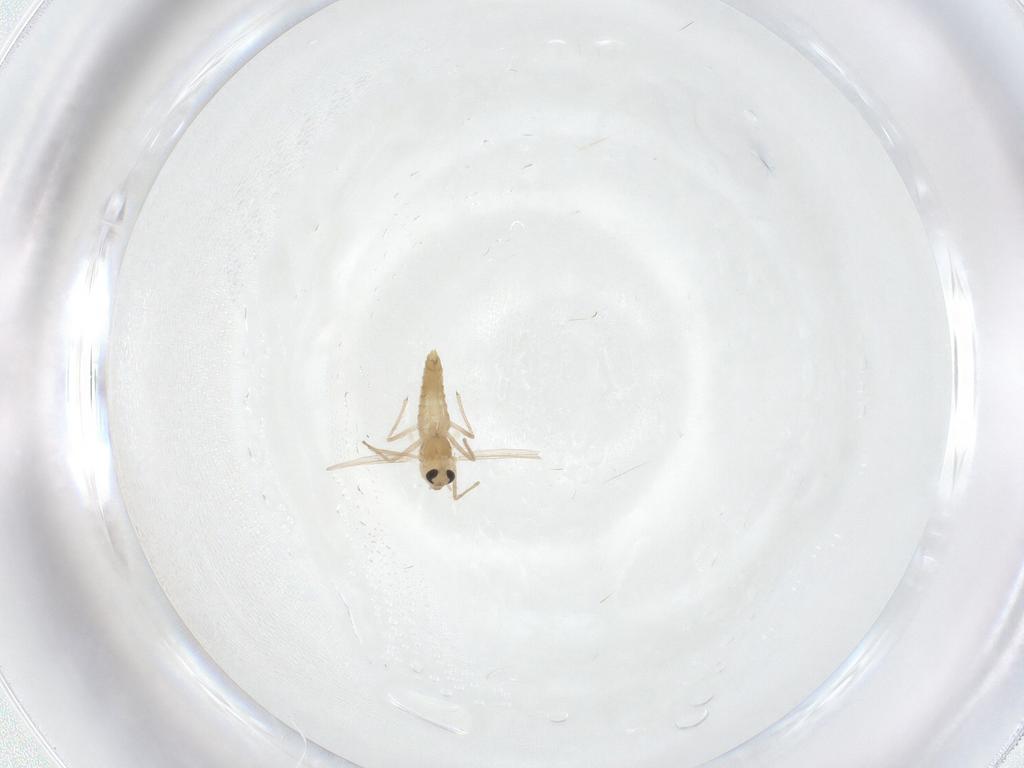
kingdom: Animalia
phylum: Arthropoda
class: Insecta
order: Diptera
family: Chironomidae
